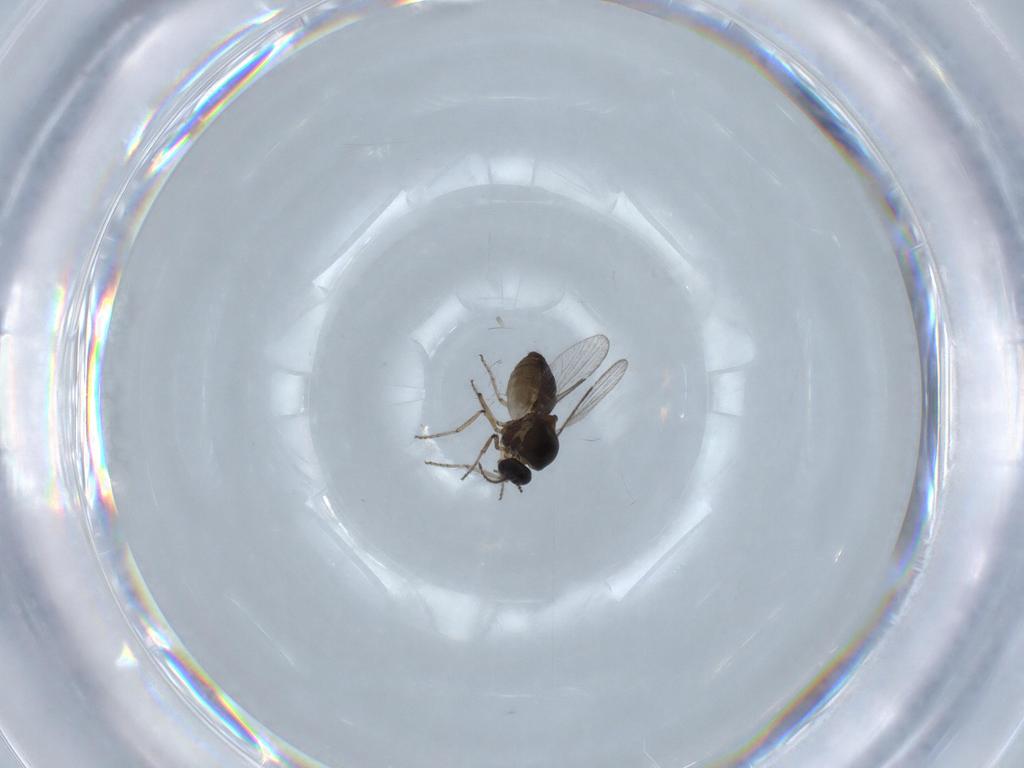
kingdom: Animalia
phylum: Arthropoda
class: Insecta
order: Diptera
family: Ceratopogonidae
